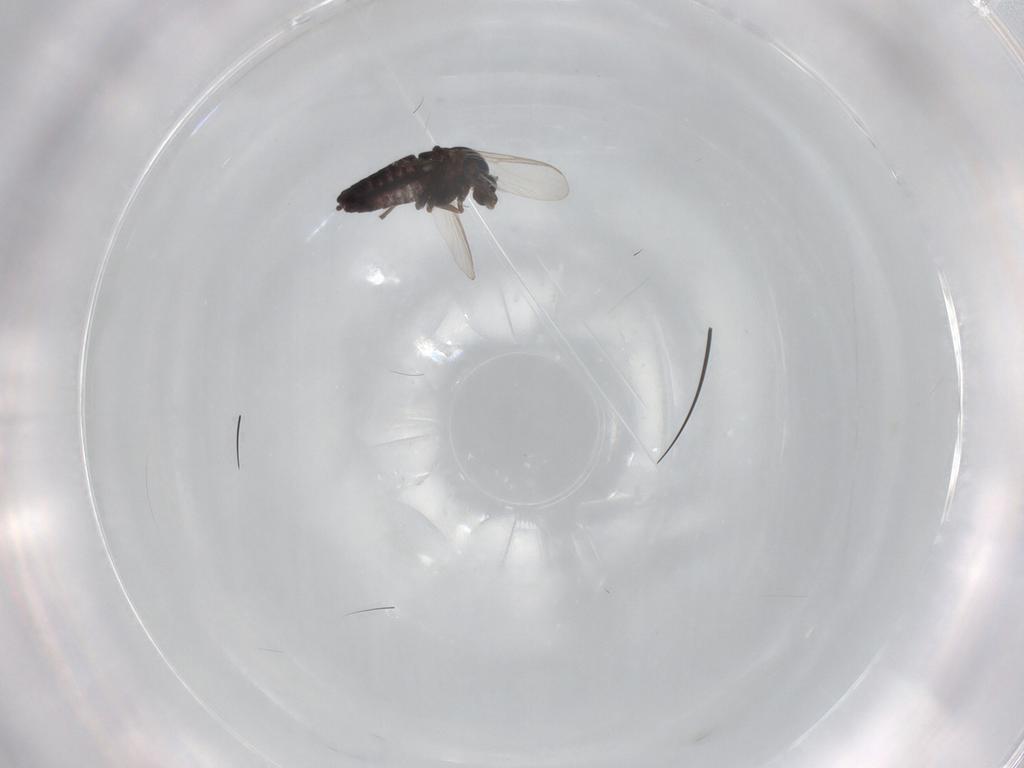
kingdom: Animalia
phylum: Arthropoda
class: Insecta
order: Diptera
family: Chironomidae
